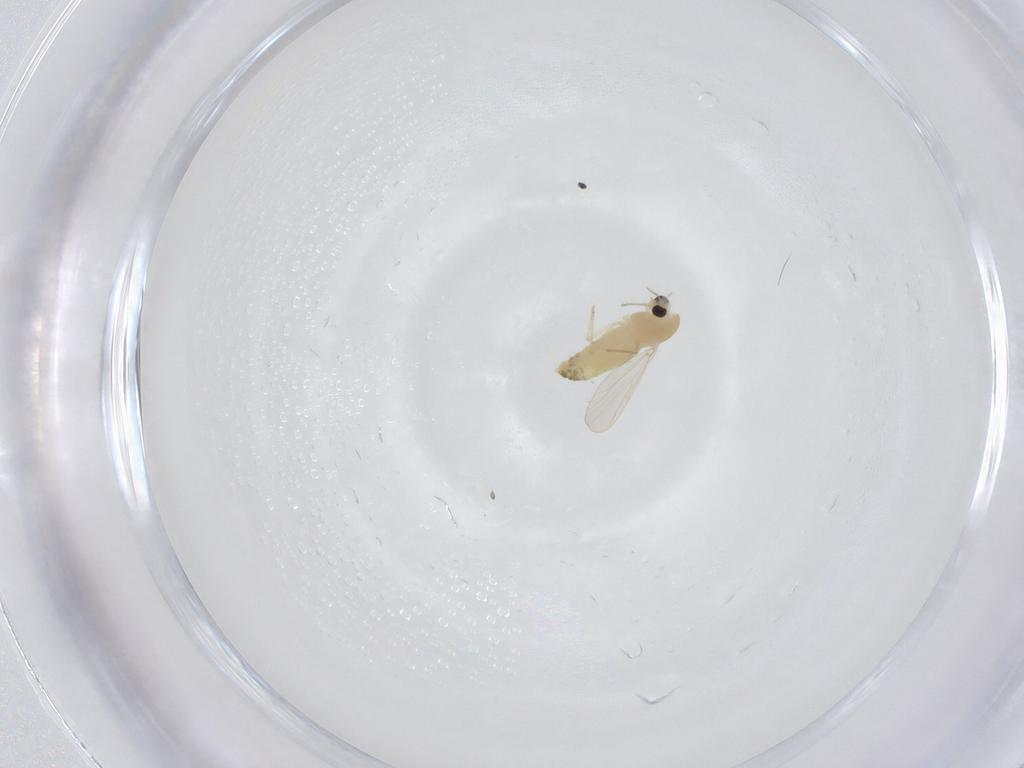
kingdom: Animalia
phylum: Arthropoda
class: Insecta
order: Diptera
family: Chironomidae
